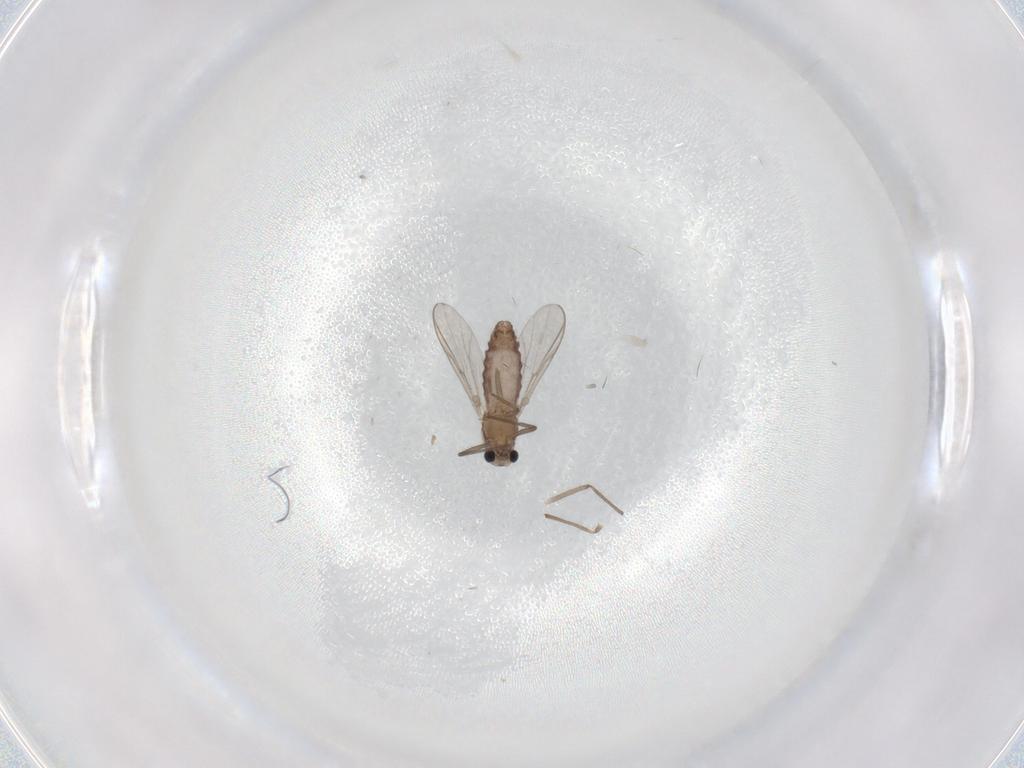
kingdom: Animalia
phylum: Arthropoda
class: Insecta
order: Diptera
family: Chironomidae
